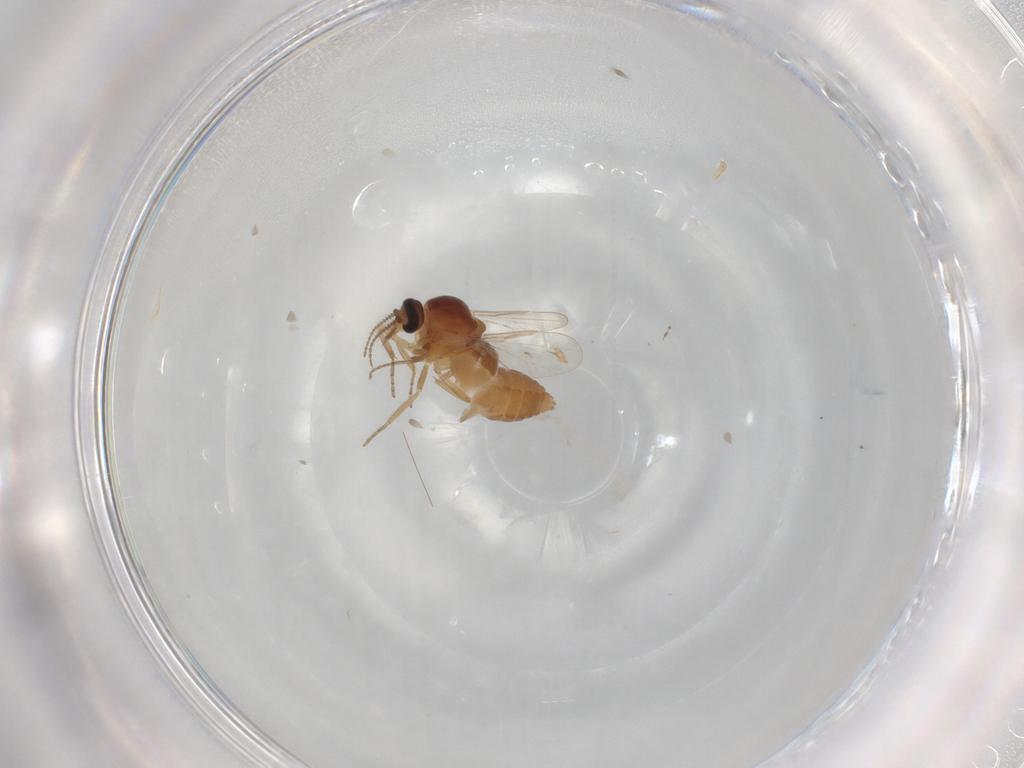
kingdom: Animalia
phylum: Arthropoda
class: Insecta
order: Diptera
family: Ceratopogonidae
